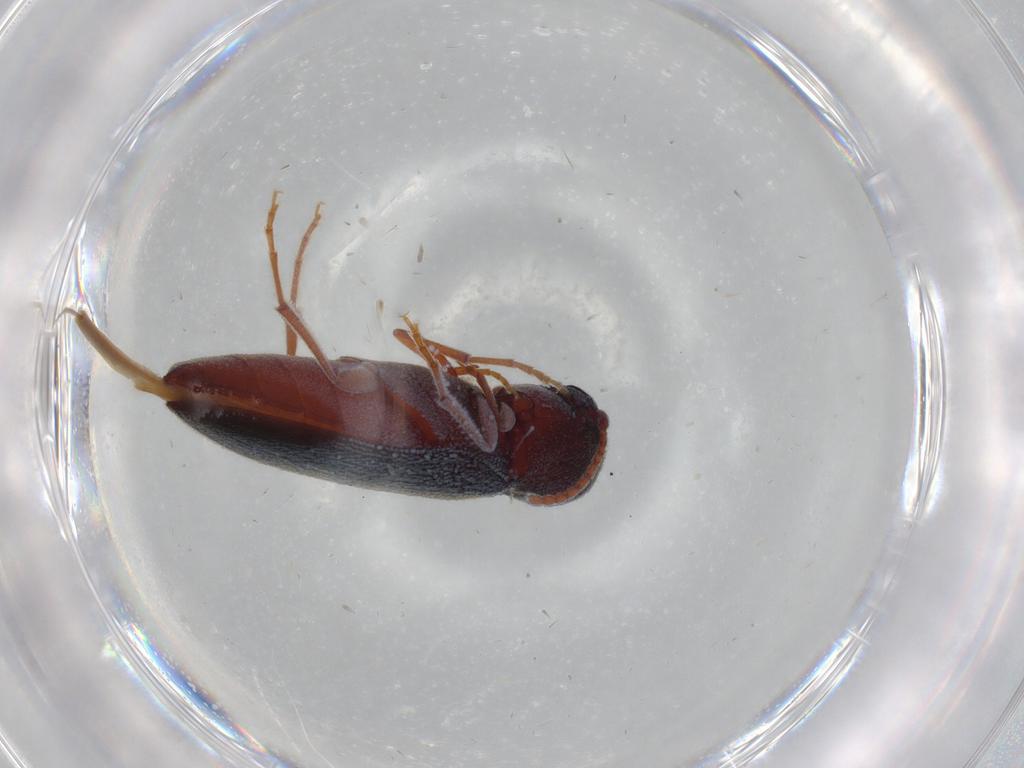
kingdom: Animalia
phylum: Arthropoda
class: Insecta
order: Coleoptera
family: Eucnemidae
